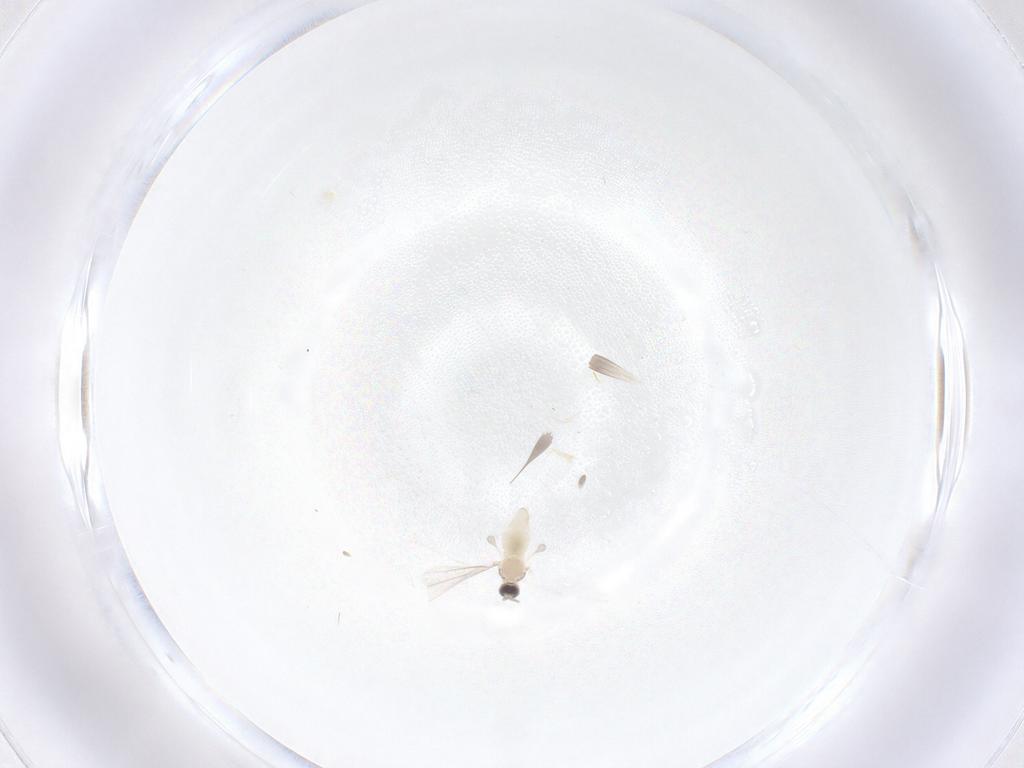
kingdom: Animalia
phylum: Arthropoda
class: Insecta
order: Diptera
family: Cecidomyiidae
